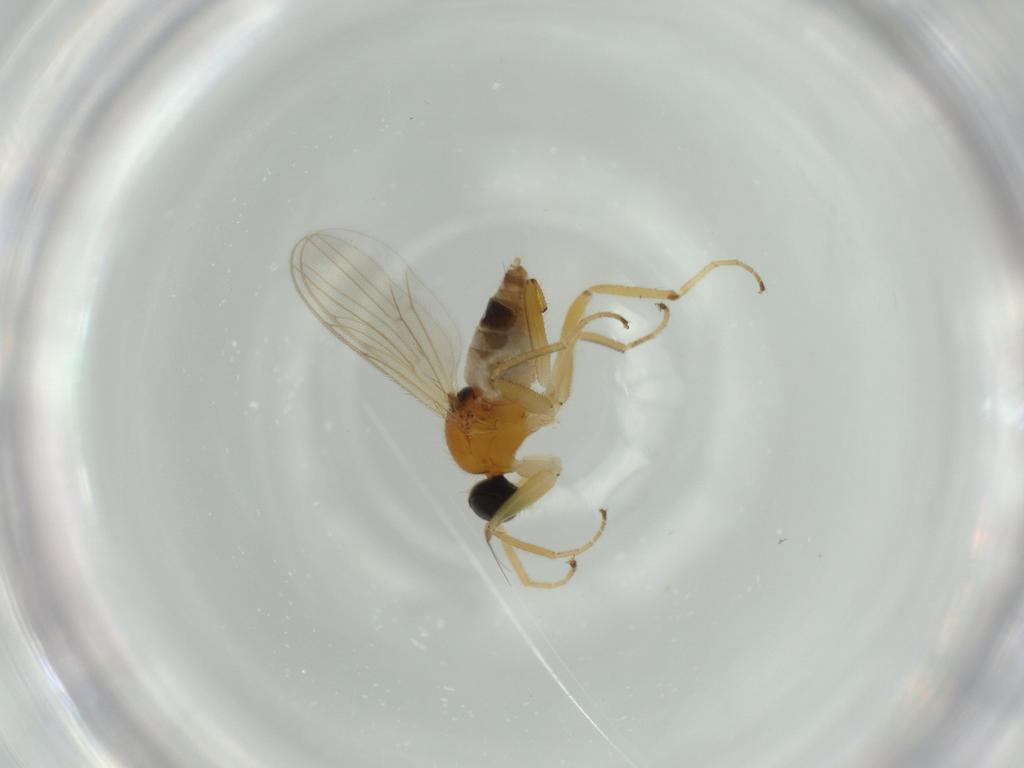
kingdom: Animalia
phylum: Arthropoda
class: Insecta
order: Diptera
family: Hybotidae
